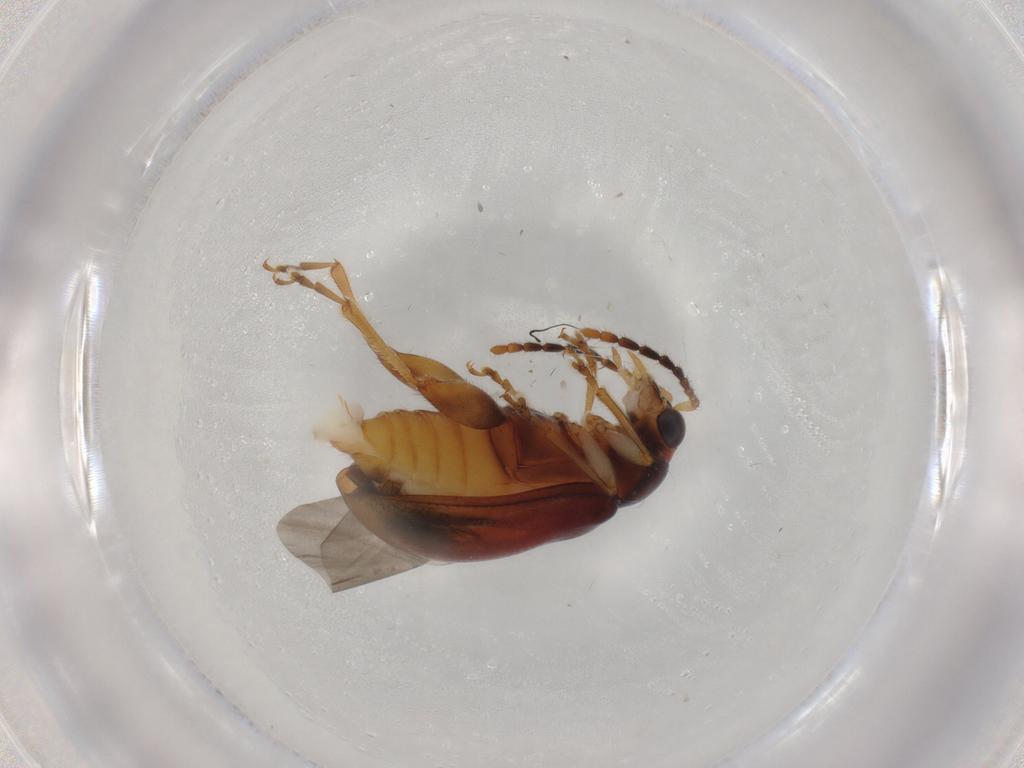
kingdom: Animalia
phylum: Arthropoda
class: Insecta
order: Coleoptera
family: Chrysomelidae
